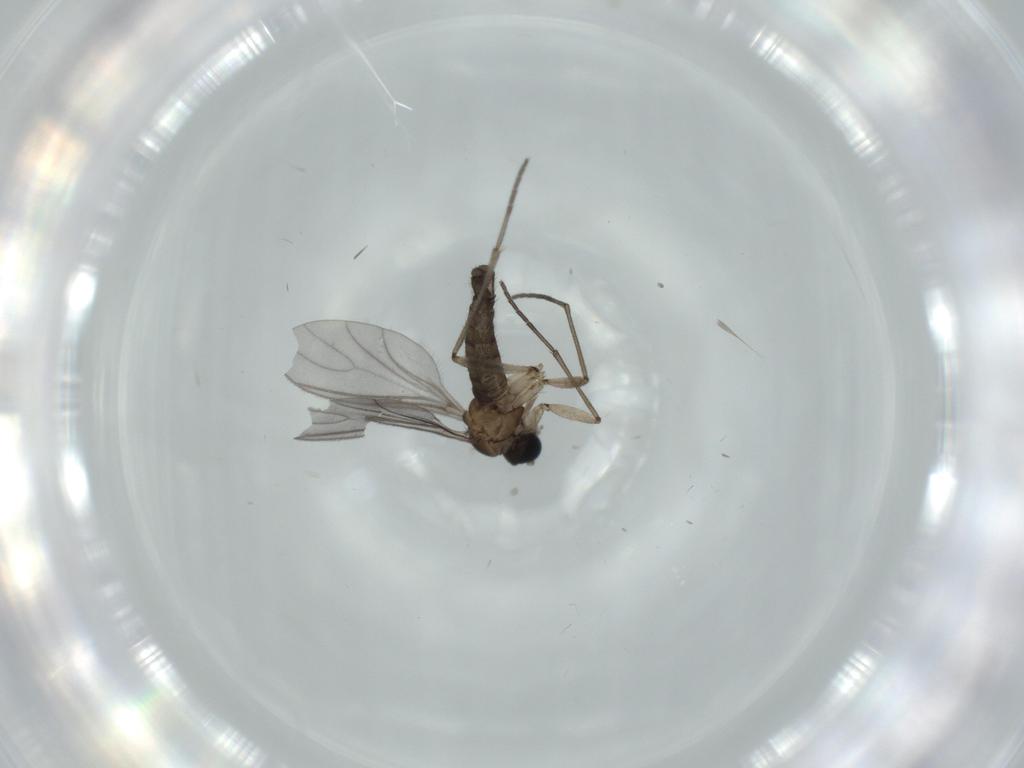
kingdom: Animalia
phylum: Arthropoda
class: Insecta
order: Diptera
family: Sciaridae
